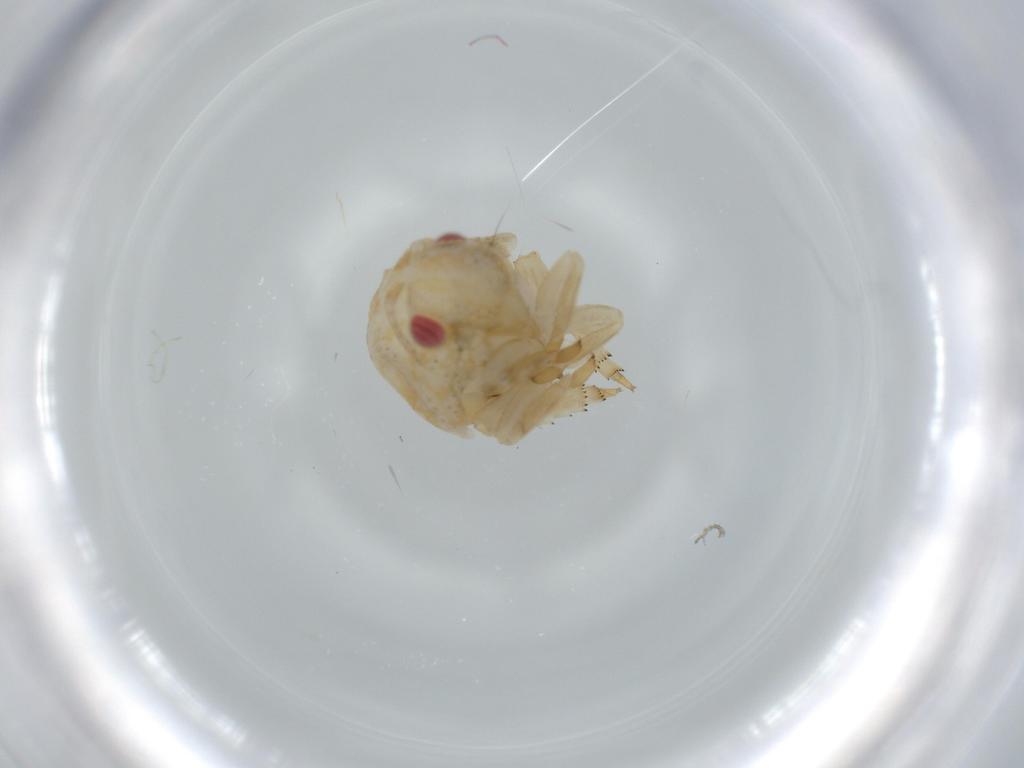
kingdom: Animalia
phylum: Arthropoda
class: Insecta
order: Hemiptera
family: Acanaloniidae
